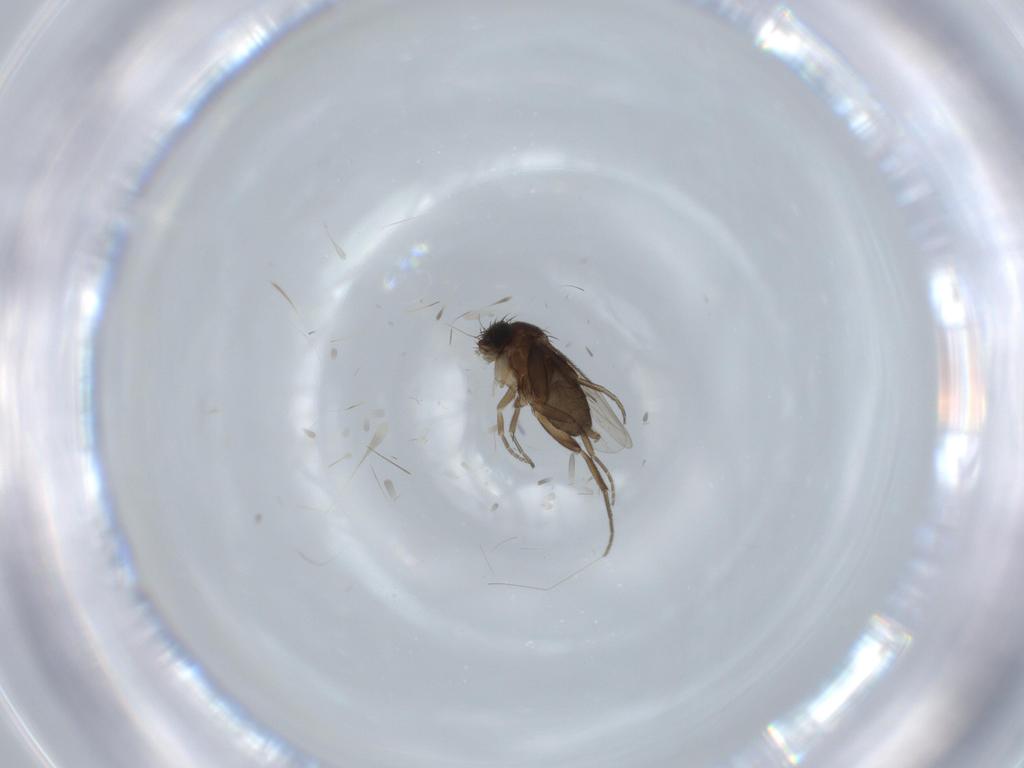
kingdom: Animalia
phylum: Arthropoda
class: Insecta
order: Diptera
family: Phoridae
